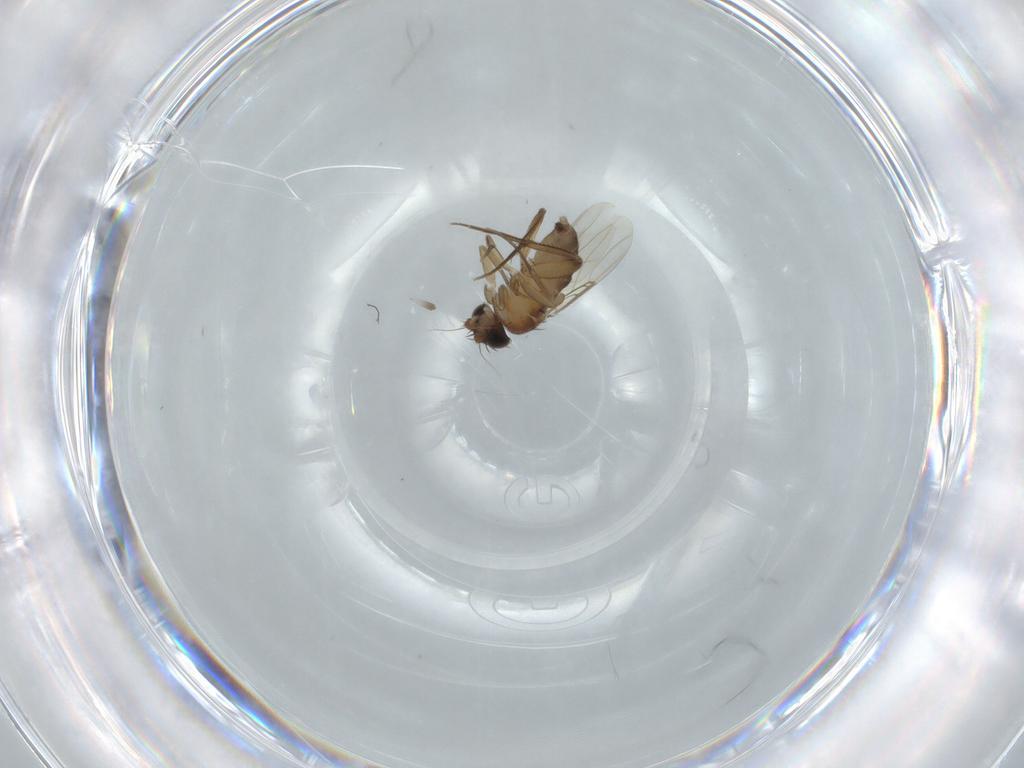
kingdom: Animalia
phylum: Arthropoda
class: Insecta
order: Diptera
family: Phoridae
